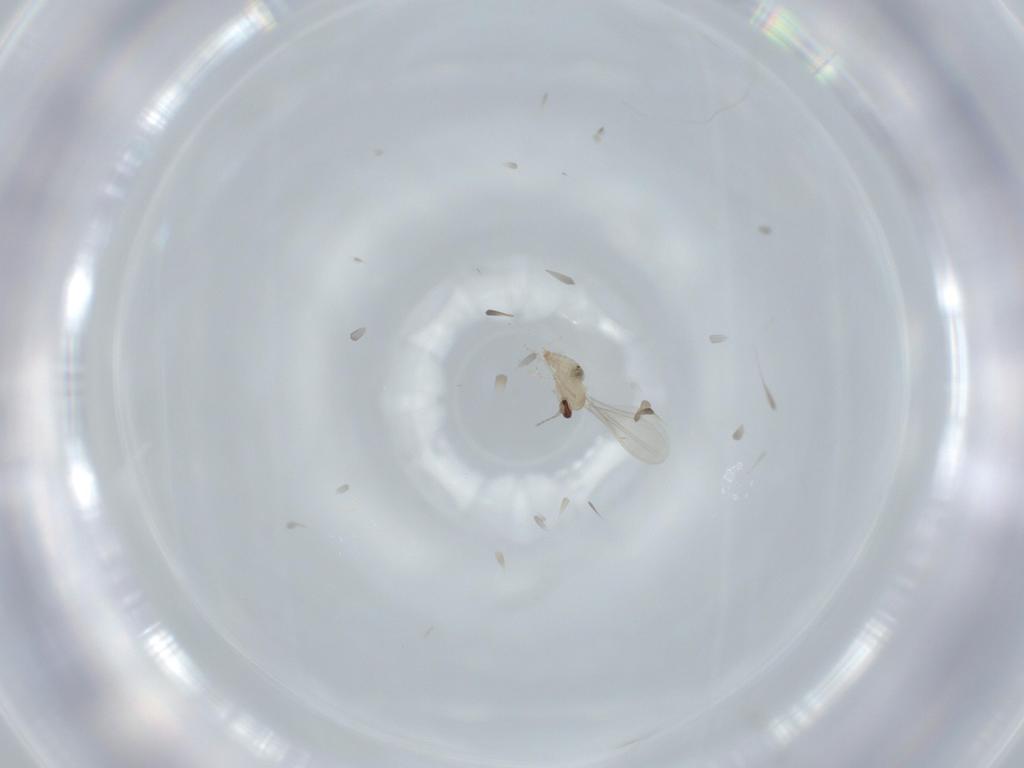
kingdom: Animalia
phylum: Arthropoda
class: Insecta
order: Diptera
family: Cecidomyiidae
